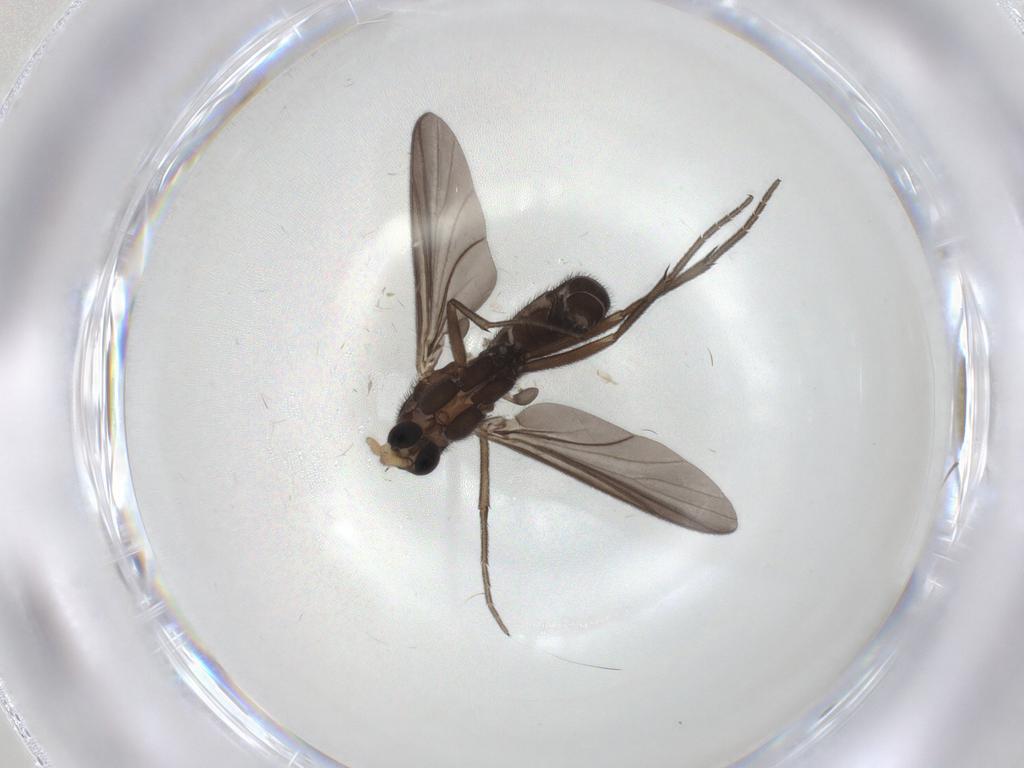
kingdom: Animalia
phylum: Arthropoda
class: Insecta
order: Diptera
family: Cecidomyiidae
